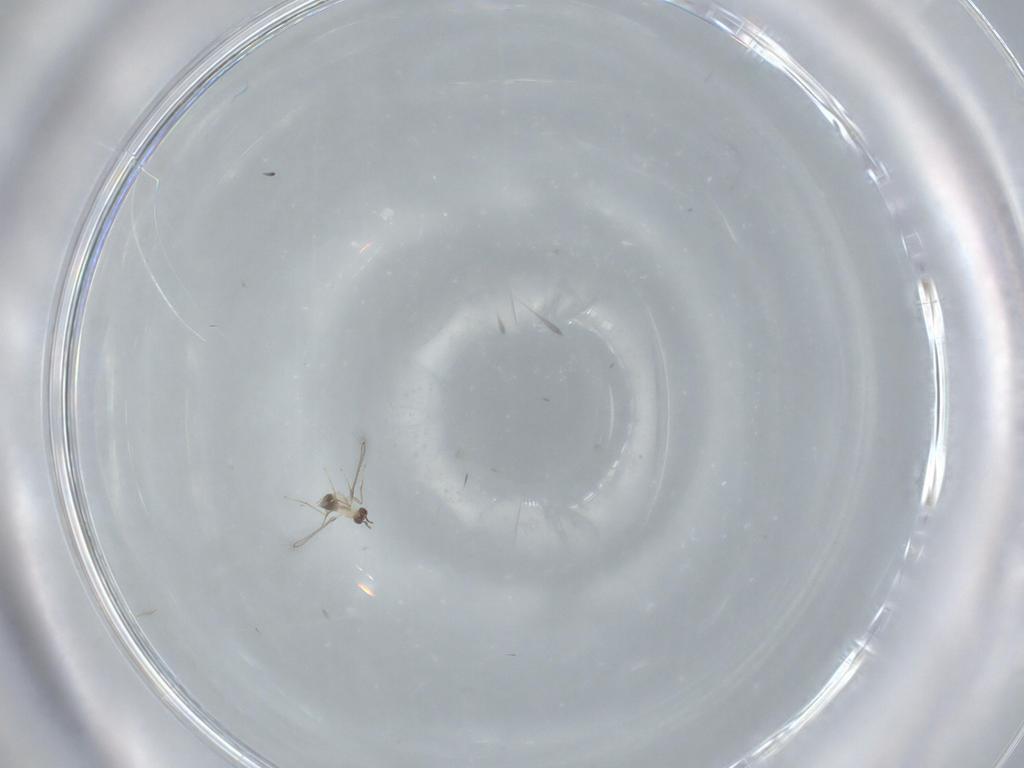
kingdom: Animalia
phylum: Arthropoda
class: Insecta
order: Hymenoptera
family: Mymaridae
